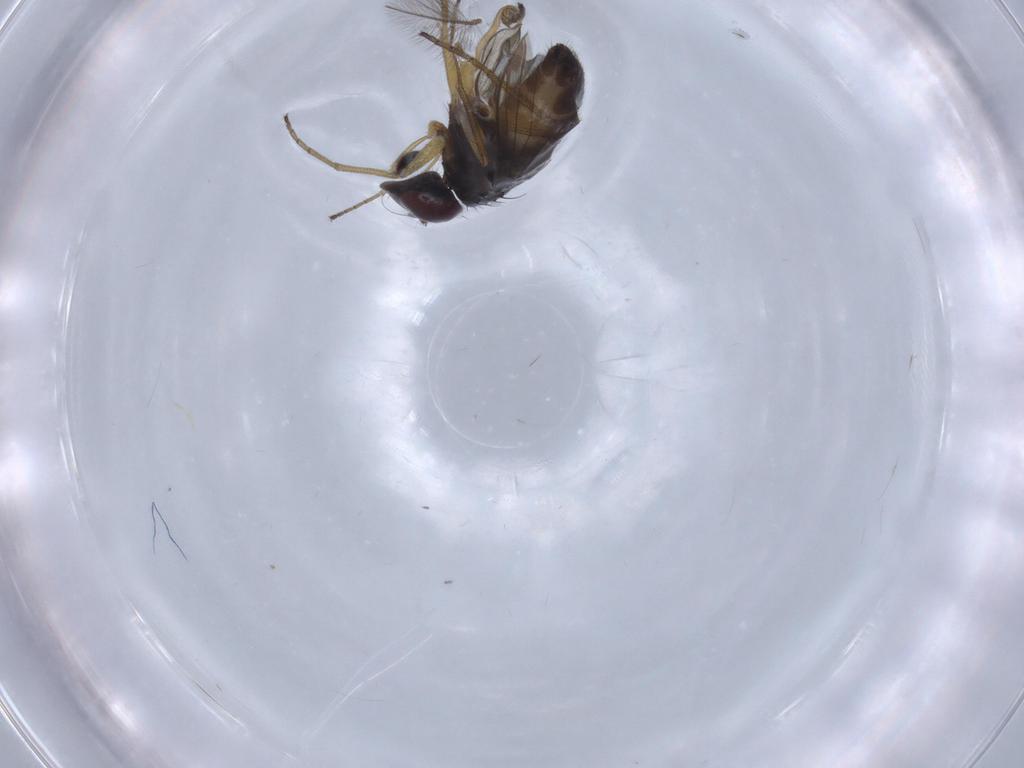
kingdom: Animalia
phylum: Arthropoda
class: Insecta
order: Diptera
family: Dolichopodidae
